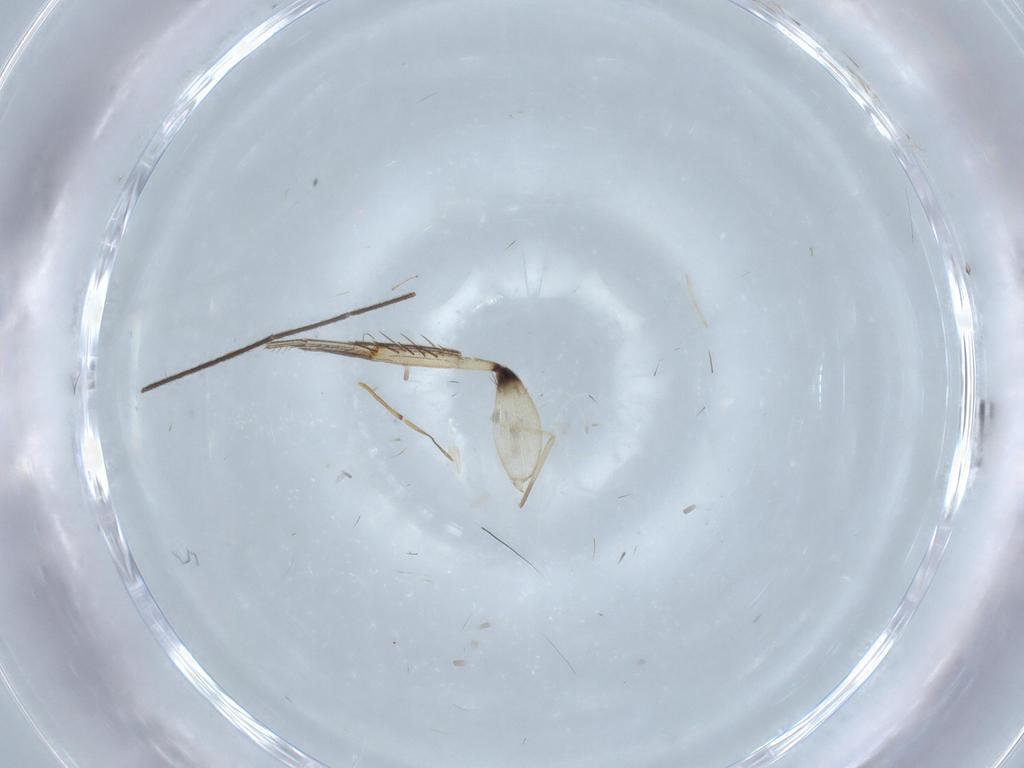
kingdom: Animalia
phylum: Arthropoda
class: Insecta
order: Diptera
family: Mycetophilidae
